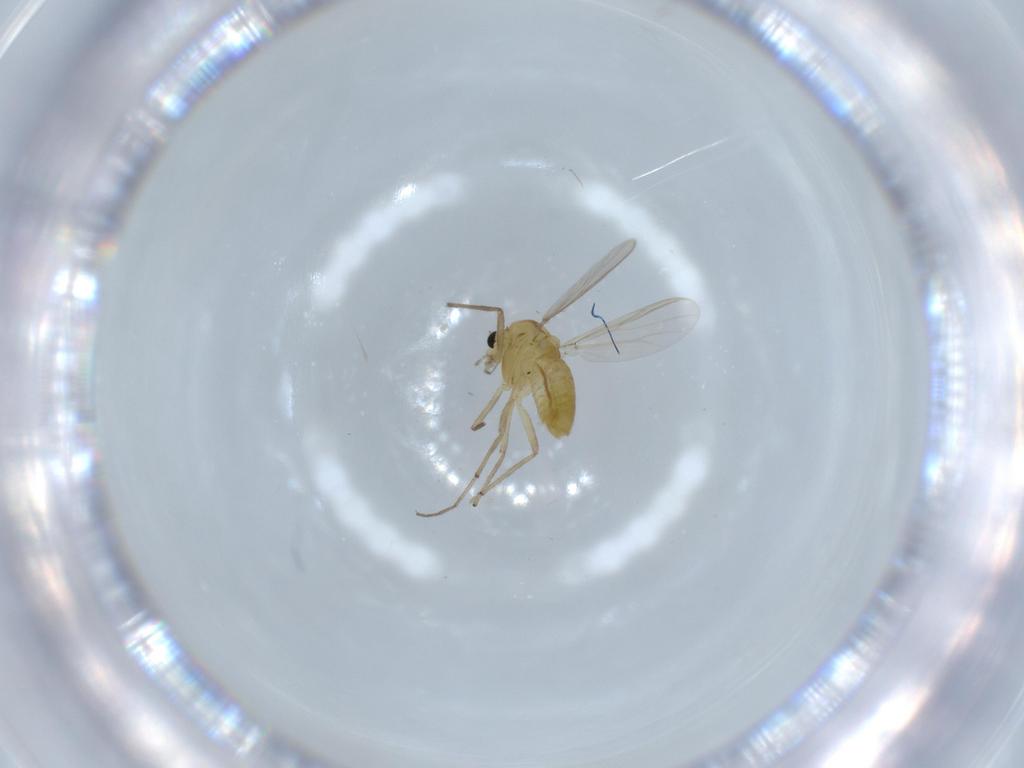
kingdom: Animalia
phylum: Arthropoda
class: Insecta
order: Diptera
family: Chironomidae
